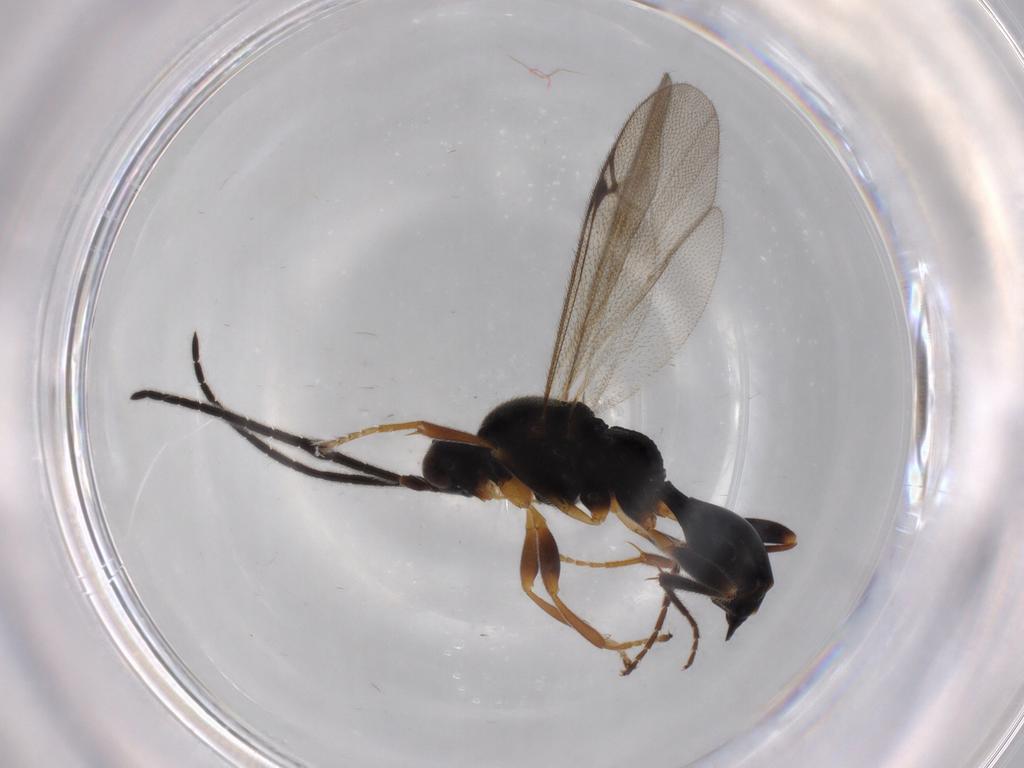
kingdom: Animalia
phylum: Arthropoda
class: Insecta
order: Hymenoptera
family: Proctotrupidae
